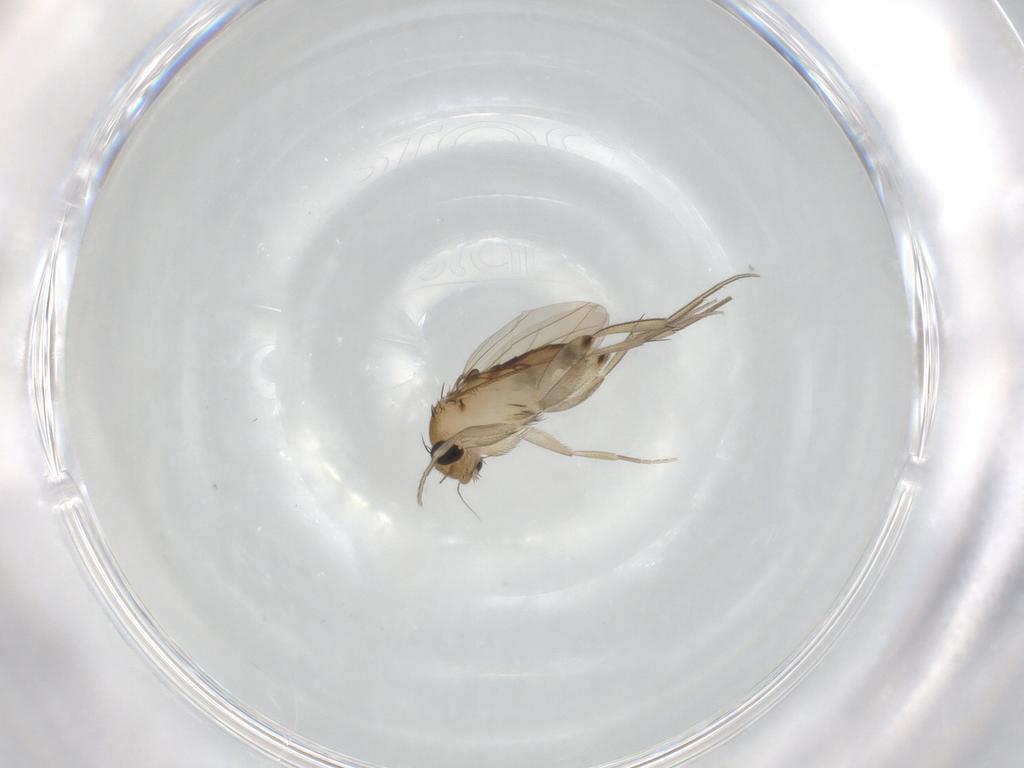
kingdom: Animalia
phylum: Arthropoda
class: Insecta
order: Diptera
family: Phoridae
